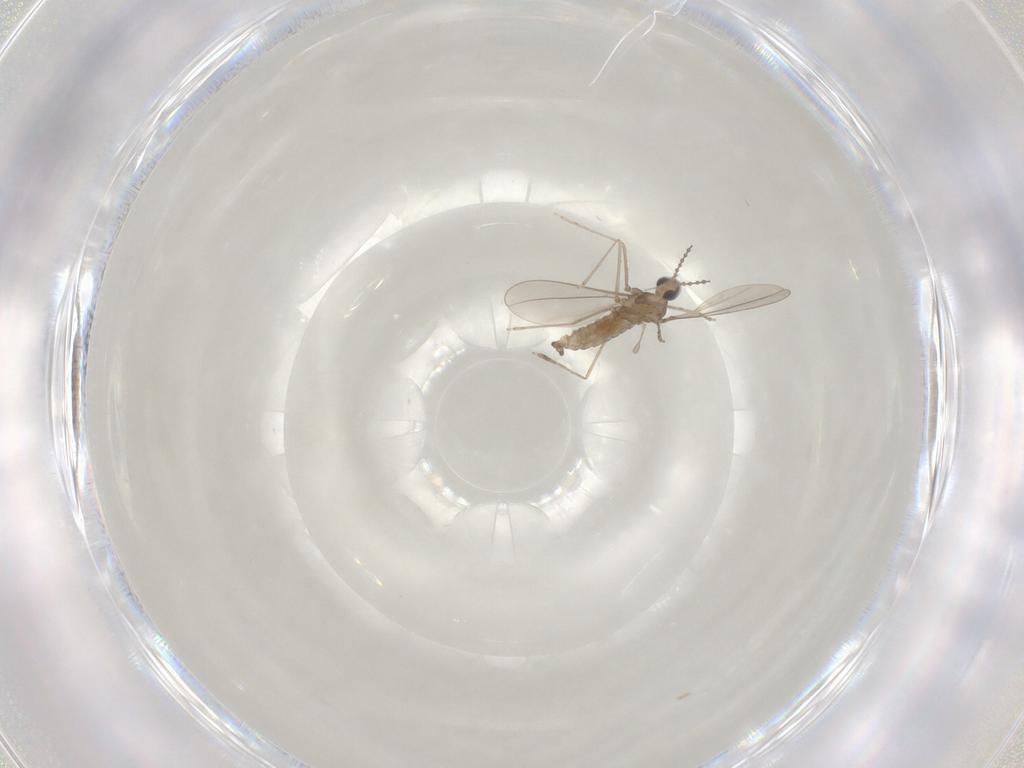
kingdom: Animalia
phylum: Arthropoda
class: Insecta
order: Diptera
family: Cecidomyiidae
